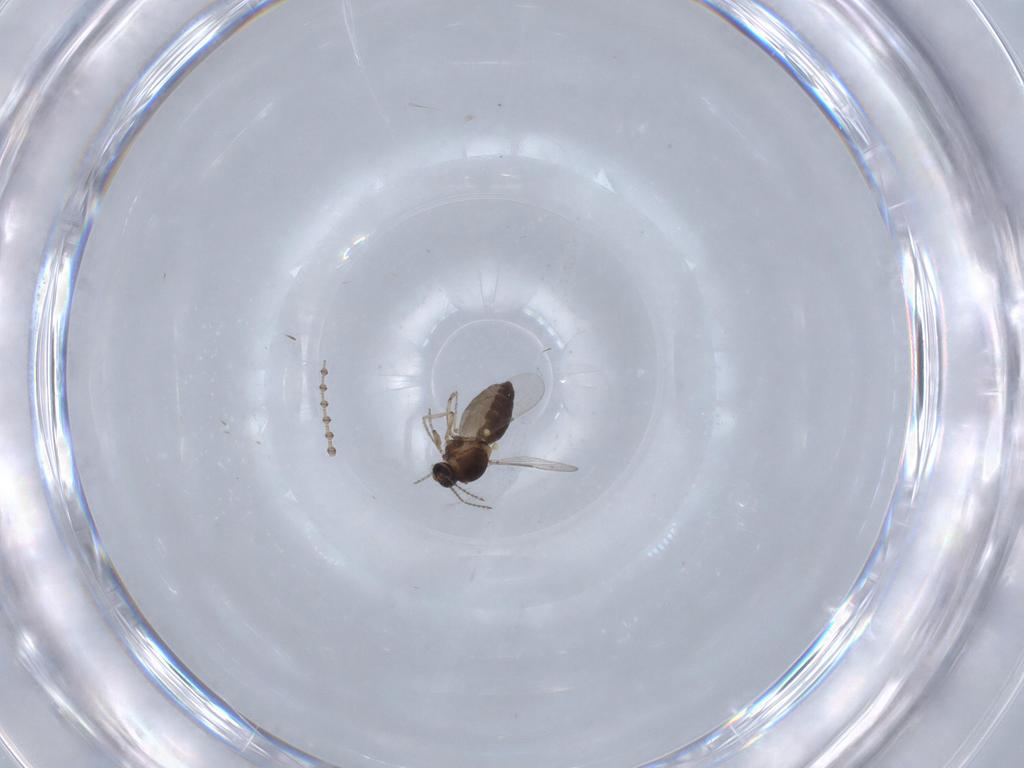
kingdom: Animalia
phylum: Arthropoda
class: Insecta
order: Diptera
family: Ceratopogonidae
